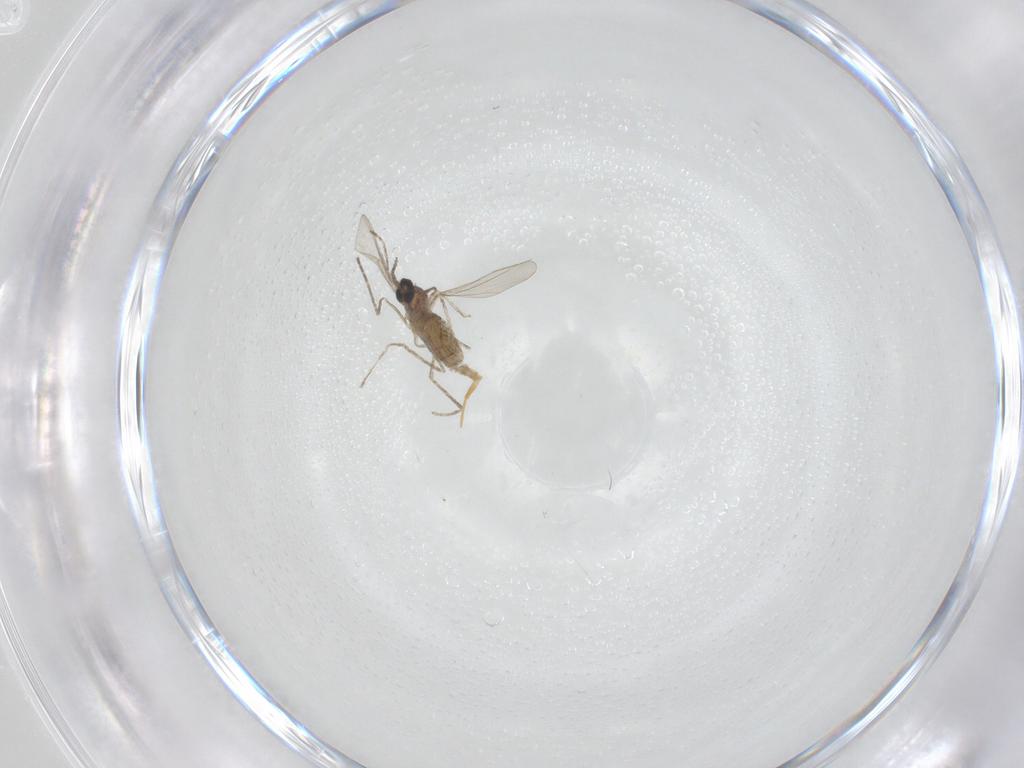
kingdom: Animalia
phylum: Arthropoda
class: Insecta
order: Diptera
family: Cecidomyiidae
